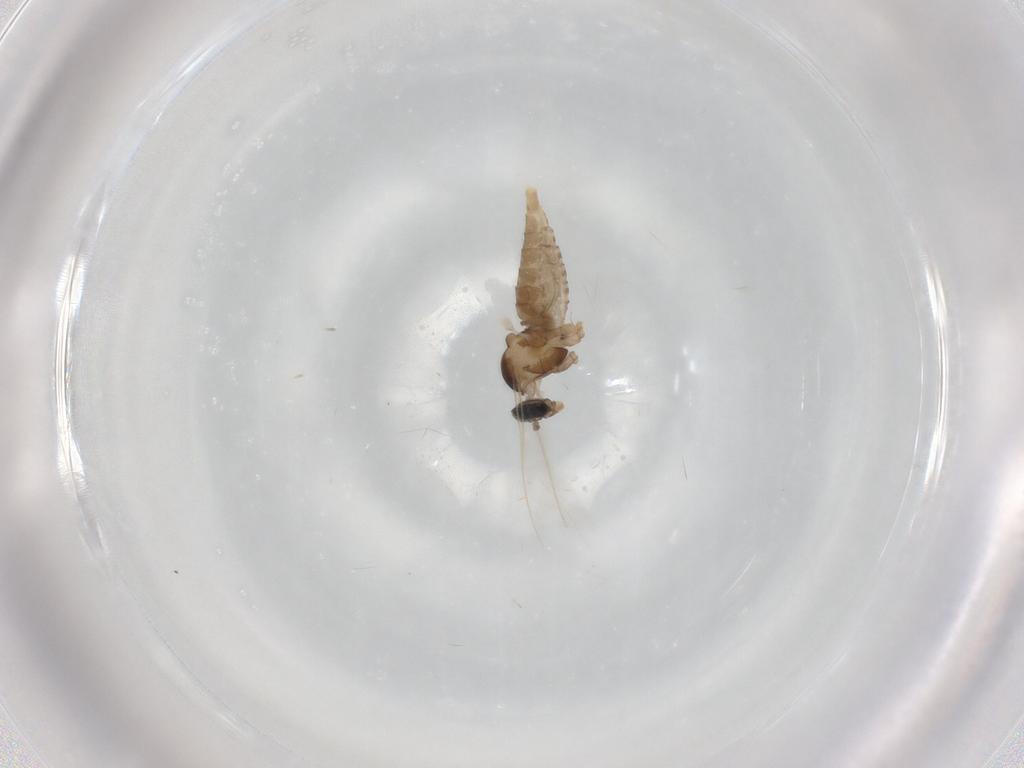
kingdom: Animalia
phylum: Arthropoda
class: Insecta
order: Diptera
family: Cecidomyiidae
